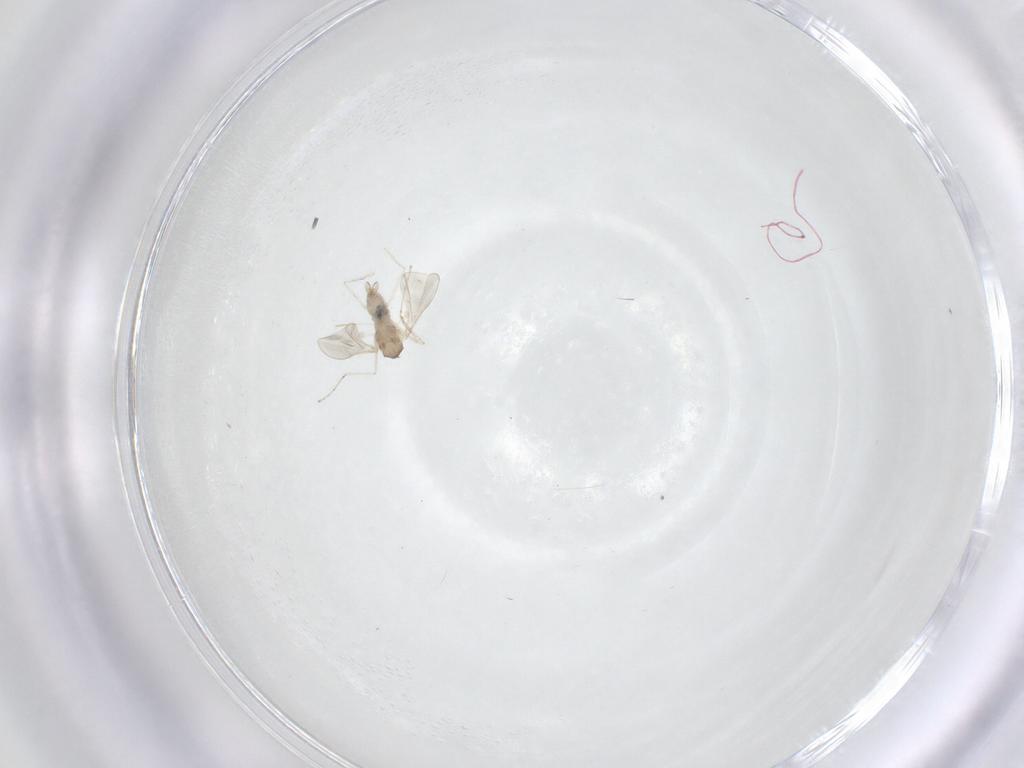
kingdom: Animalia
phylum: Arthropoda
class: Insecta
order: Diptera
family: Cecidomyiidae
